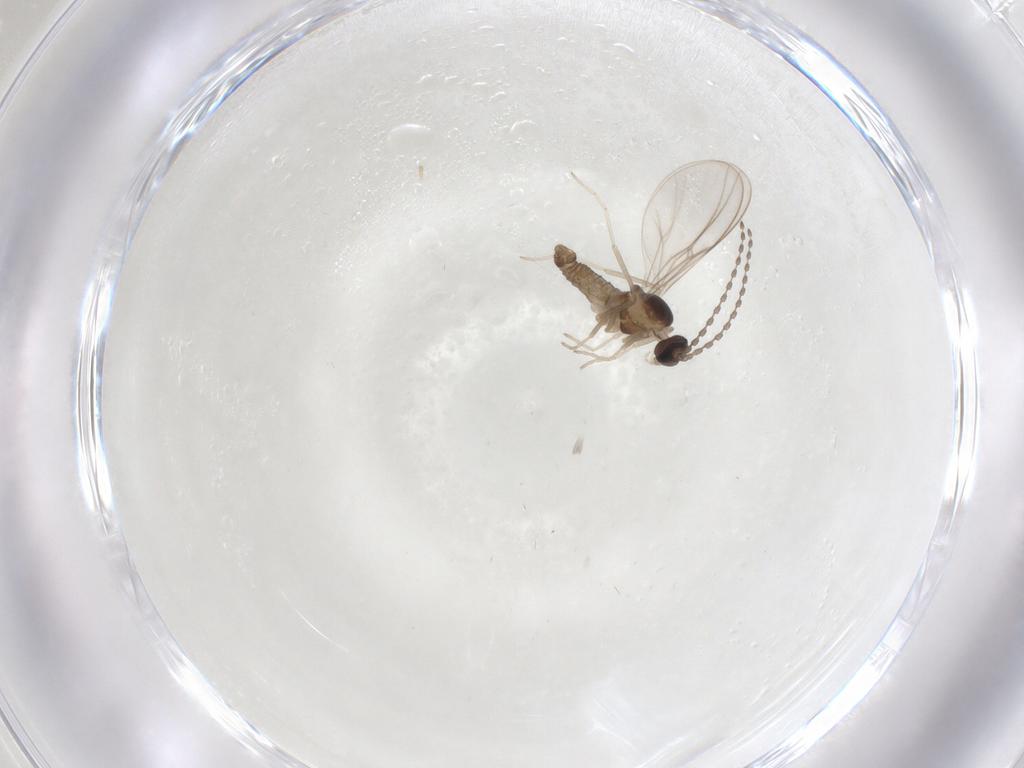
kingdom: Animalia
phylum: Arthropoda
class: Insecta
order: Diptera
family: Cecidomyiidae
